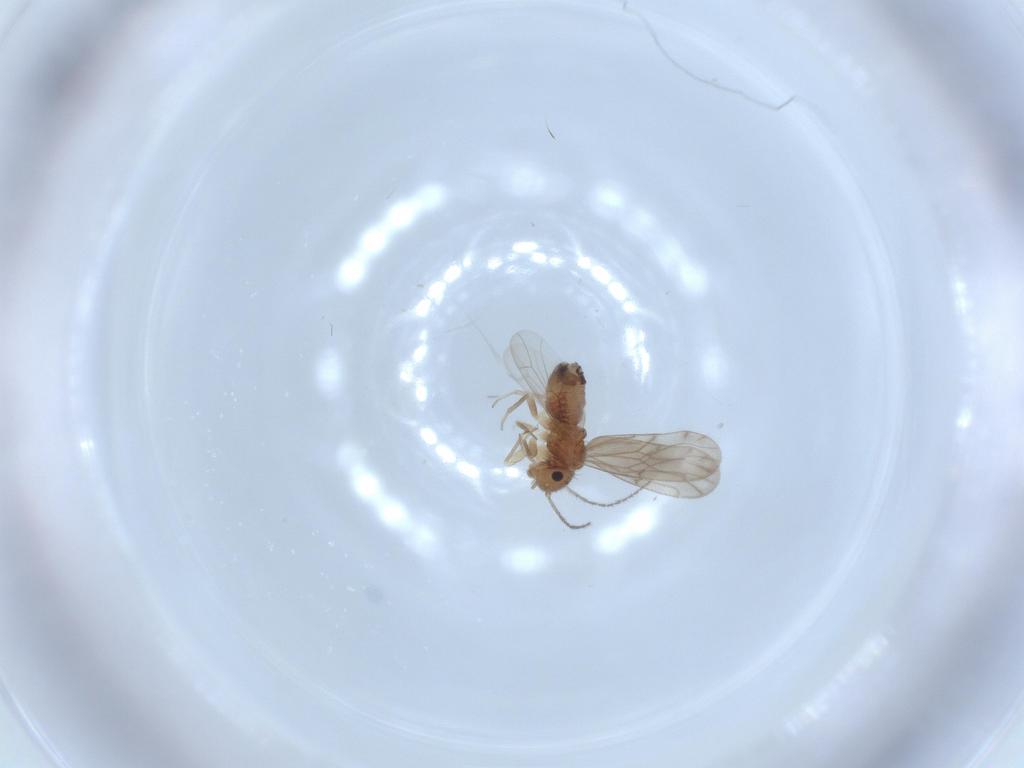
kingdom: Animalia
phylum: Arthropoda
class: Insecta
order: Psocodea
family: Ectopsocidae
